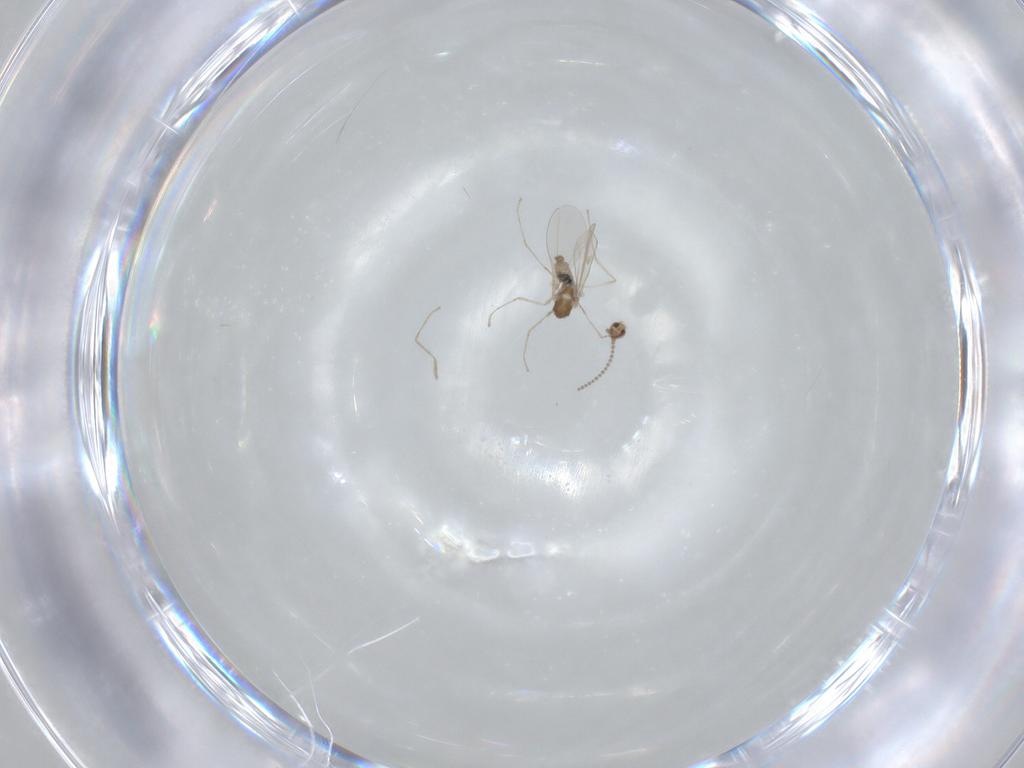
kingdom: Animalia
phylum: Arthropoda
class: Insecta
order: Diptera
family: Cecidomyiidae
